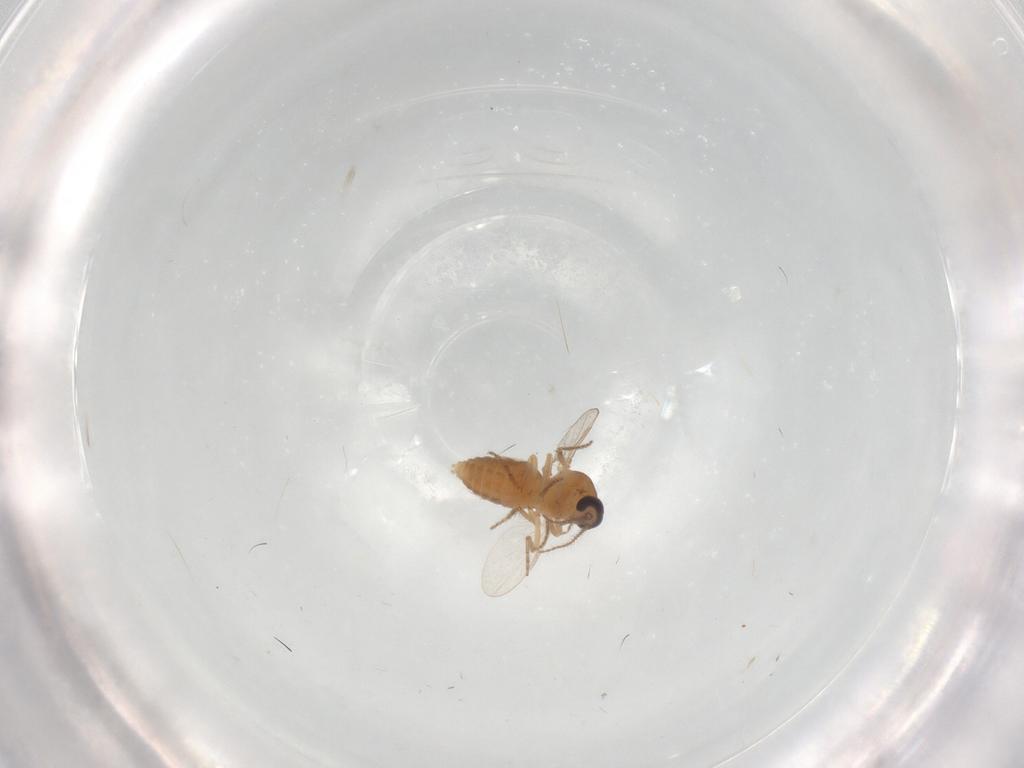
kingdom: Animalia
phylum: Arthropoda
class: Insecta
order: Diptera
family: Ceratopogonidae
